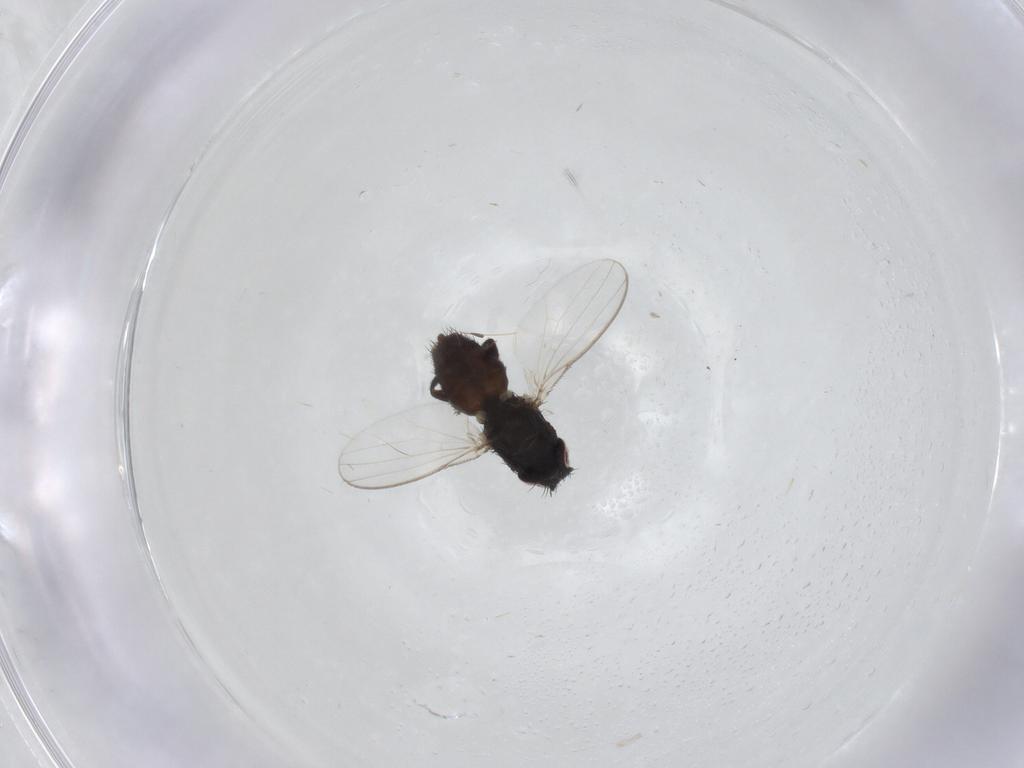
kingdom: Animalia
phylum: Arthropoda
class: Insecta
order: Diptera
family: Milichiidae
